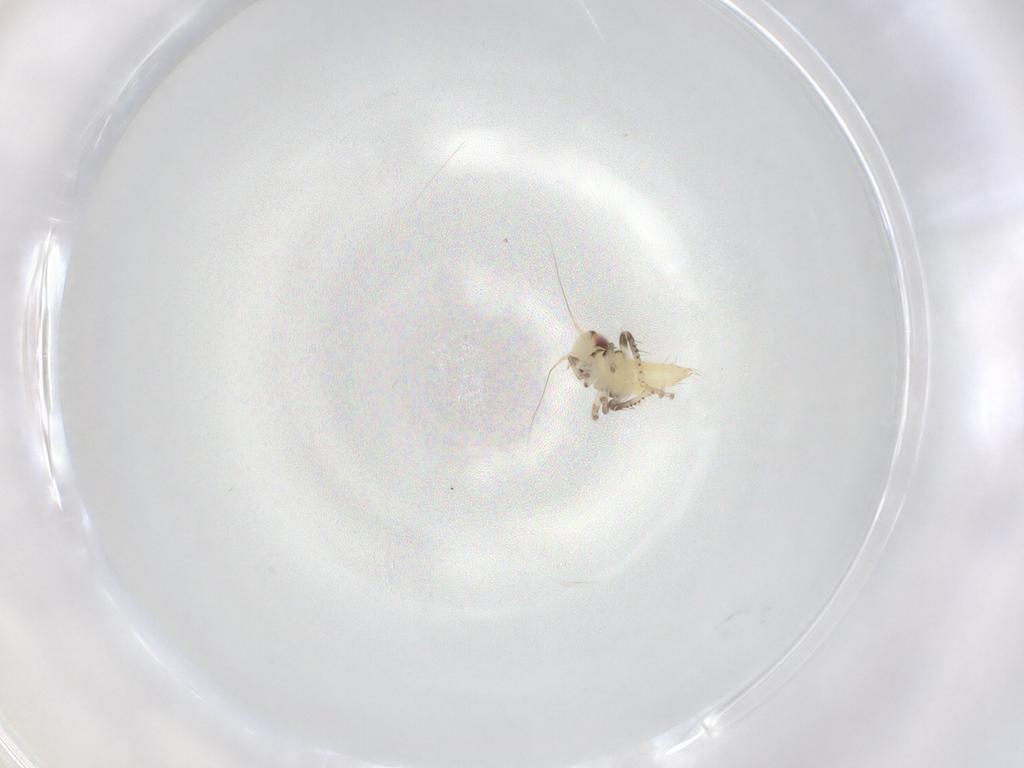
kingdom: Animalia
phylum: Arthropoda
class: Insecta
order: Hemiptera
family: Cicadellidae
